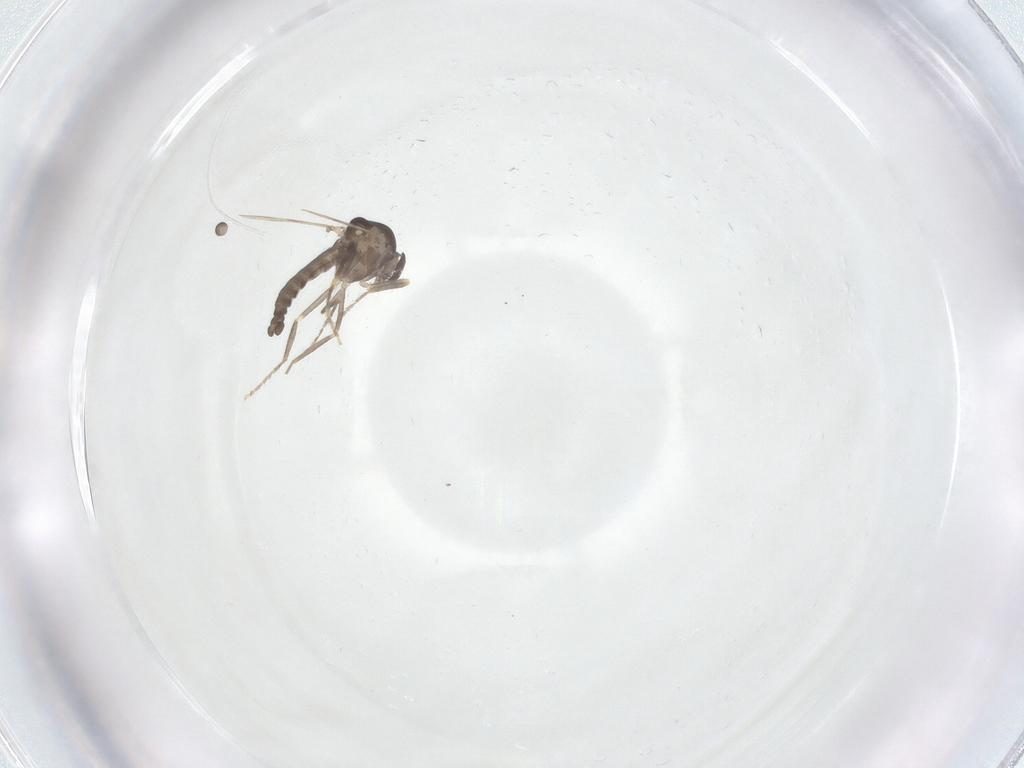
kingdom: Animalia
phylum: Arthropoda
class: Insecta
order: Diptera
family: Ceratopogonidae
